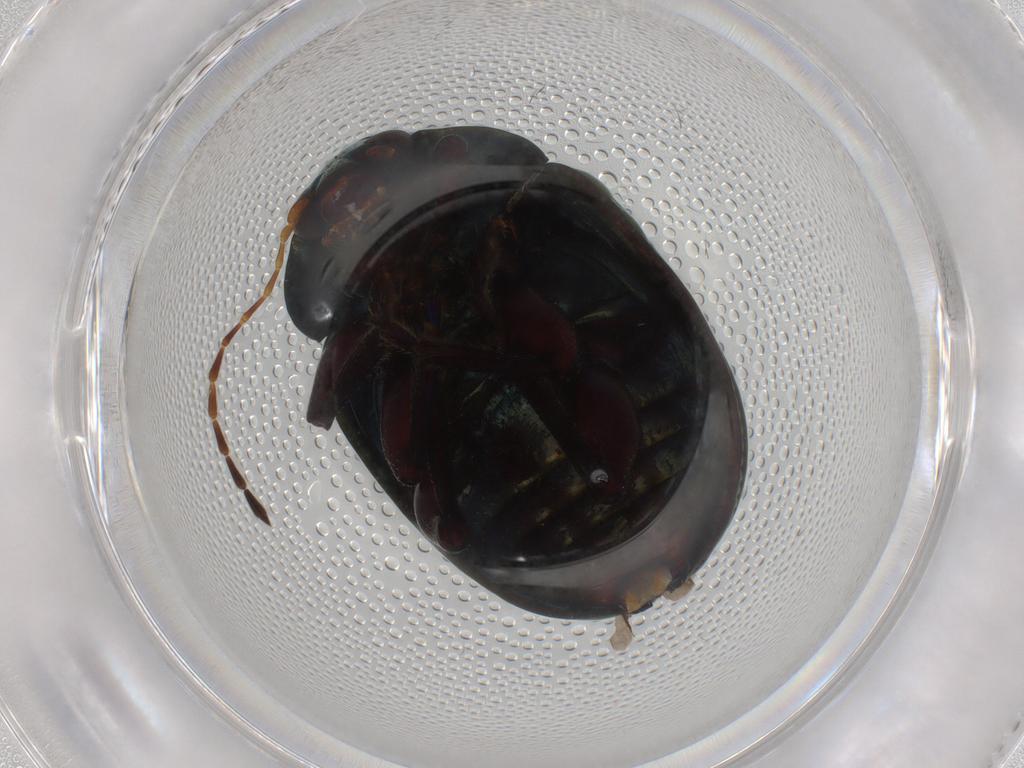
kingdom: Animalia
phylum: Arthropoda
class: Insecta
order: Coleoptera
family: Chrysomelidae
